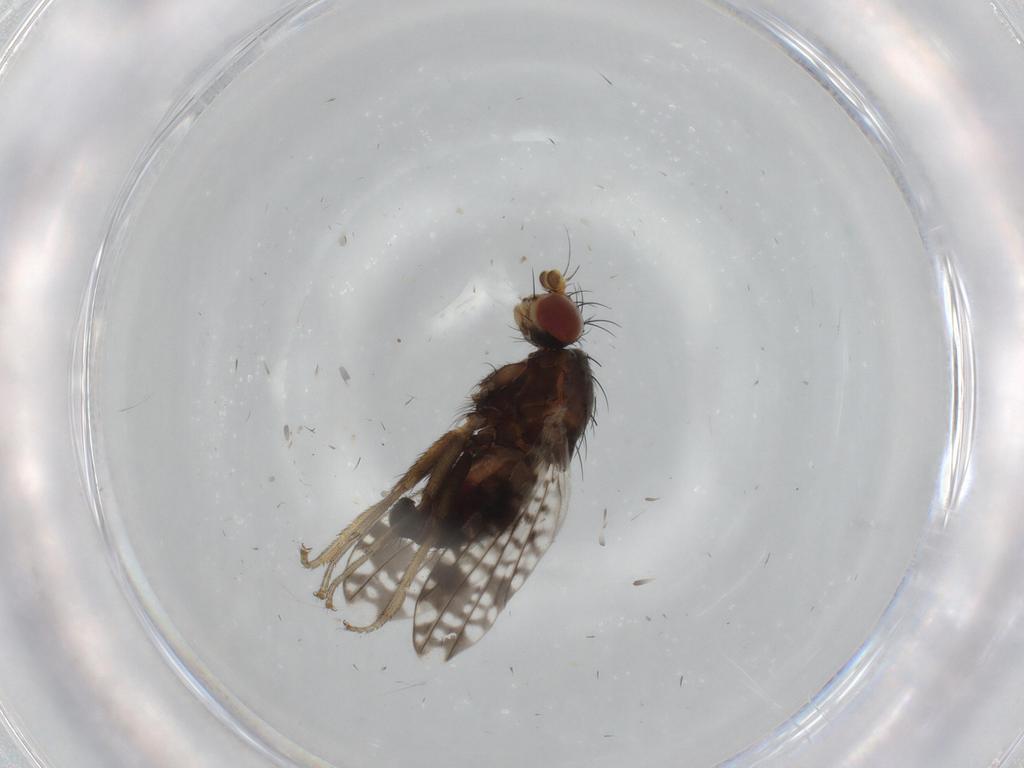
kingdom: Animalia
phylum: Arthropoda
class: Insecta
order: Diptera
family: Tephritidae
